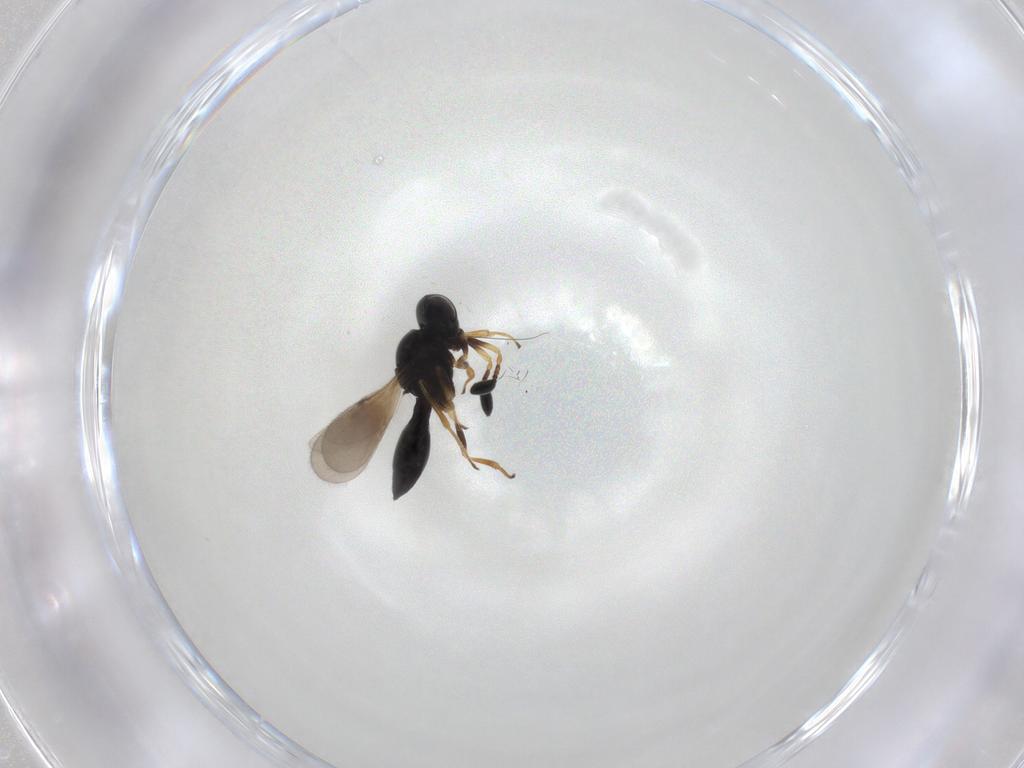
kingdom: Animalia
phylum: Arthropoda
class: Insecta
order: Hymenoptera
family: Scelionidae
